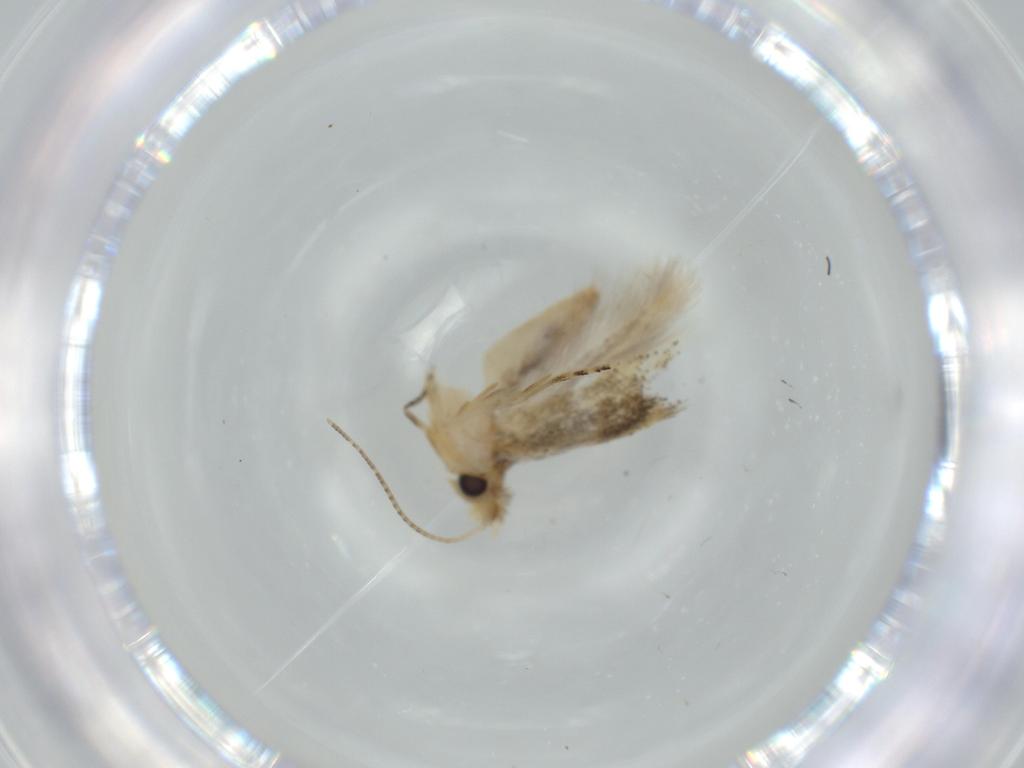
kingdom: Animalia
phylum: Arthropoda
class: Insecta
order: Lepidoptera
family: Bucculatricidae
